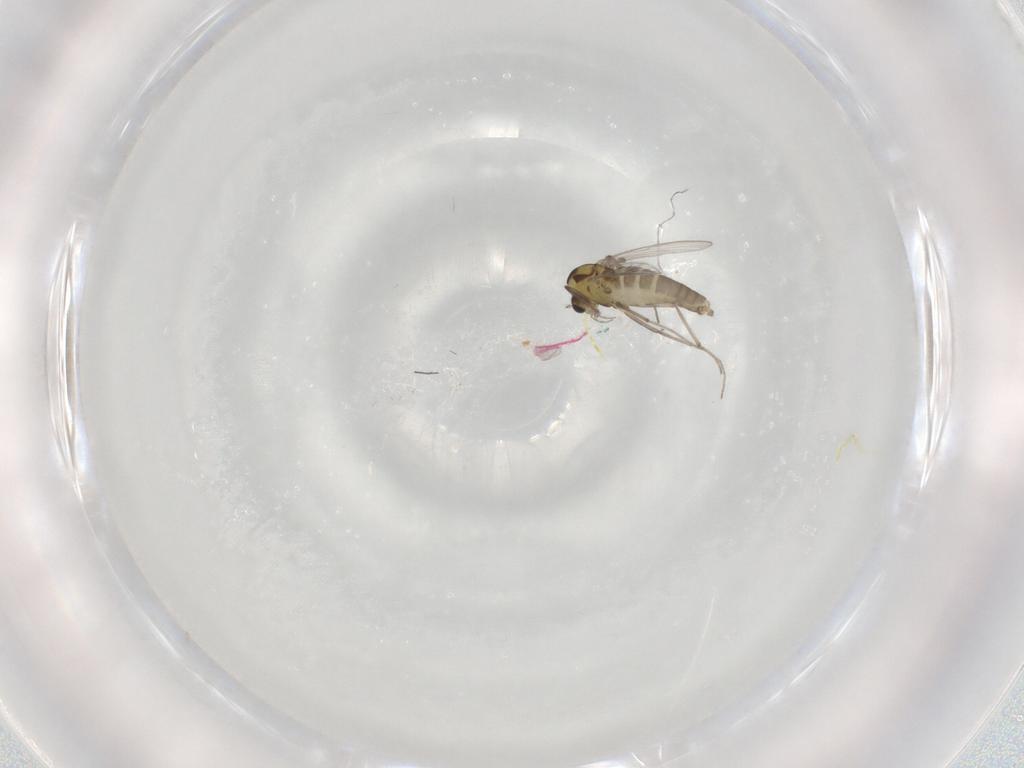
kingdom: Animalia
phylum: Arthropoda
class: Insecta
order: Diptera
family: Chironomidae
